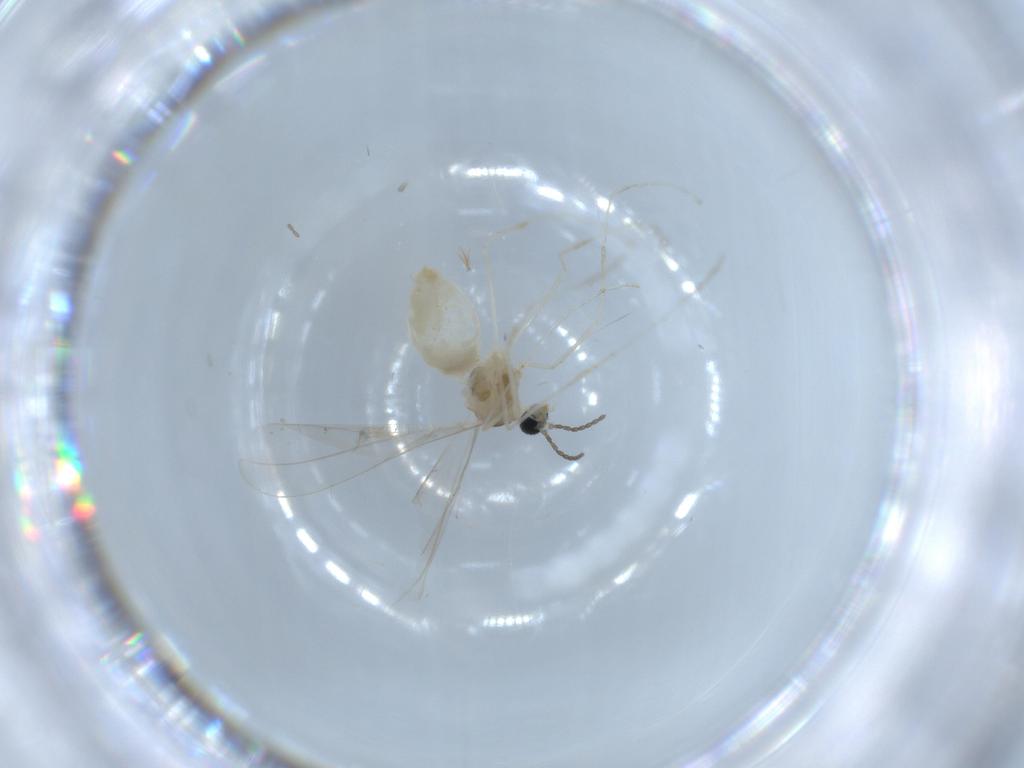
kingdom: Animalia
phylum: Arthropoda
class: Insecta
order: Diptera
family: Cecidomyiidae
